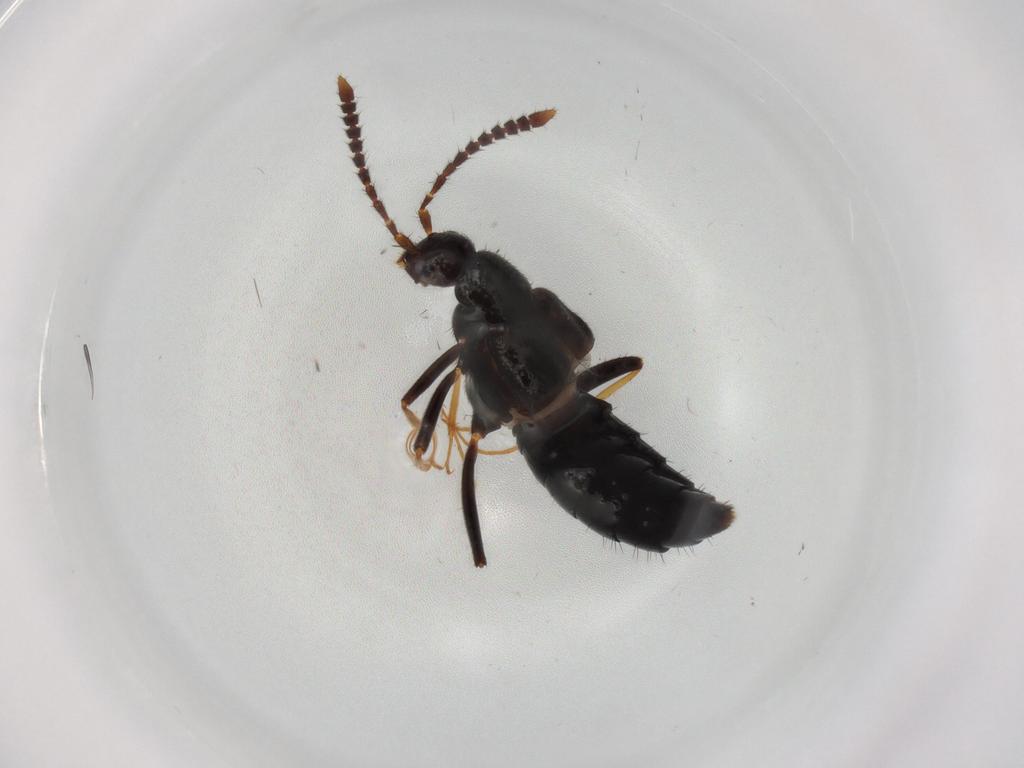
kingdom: Animalia
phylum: Arthropoda
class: Insecta
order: Coleoptera
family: Staphylinidae
